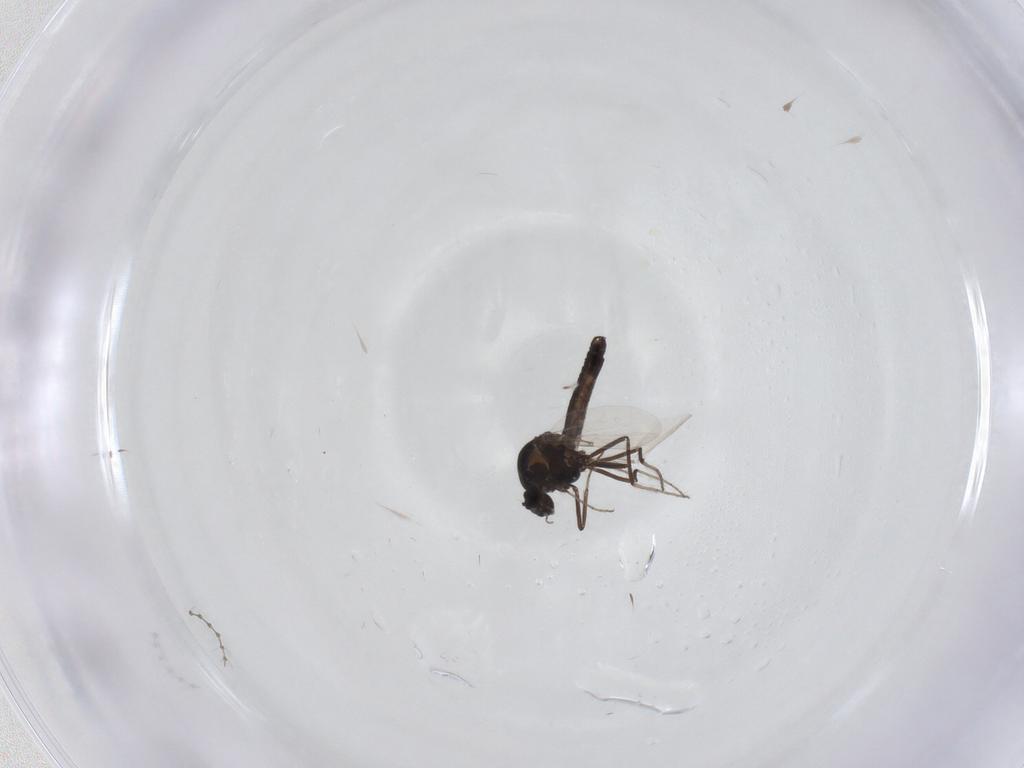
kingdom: Animalia
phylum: Arthropoda
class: Insecta
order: Diptera
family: Ceratopogonidae
